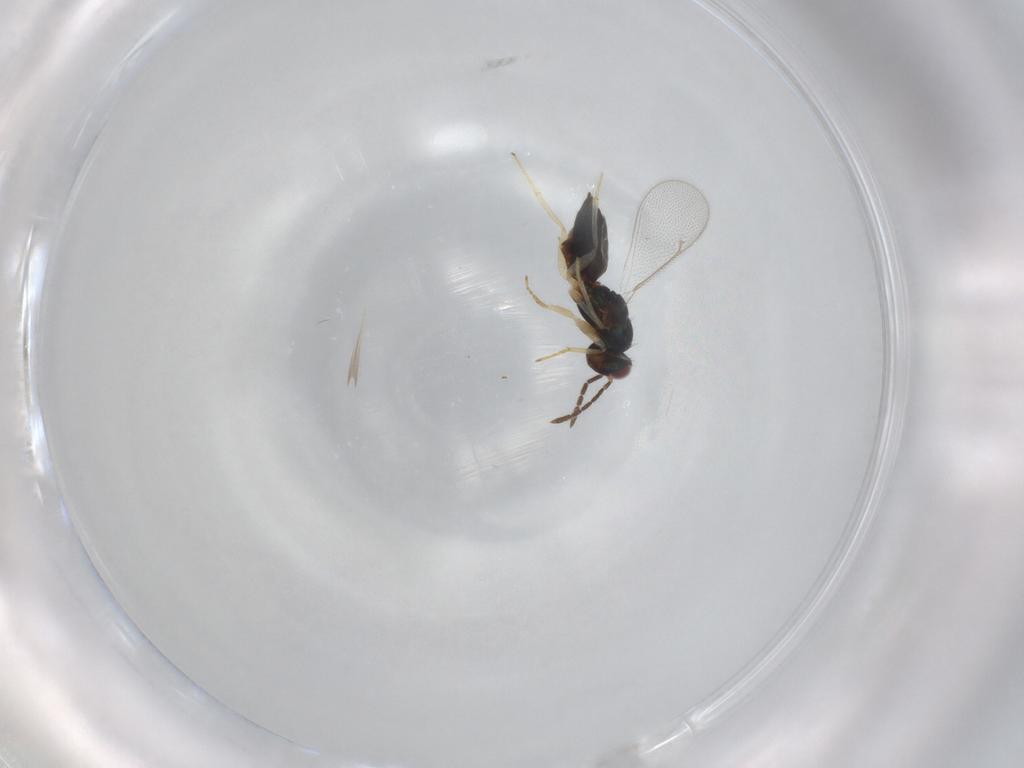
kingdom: Animalia
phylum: Arthropoda
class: Insecta
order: Hymenoptera
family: Eulophidae
